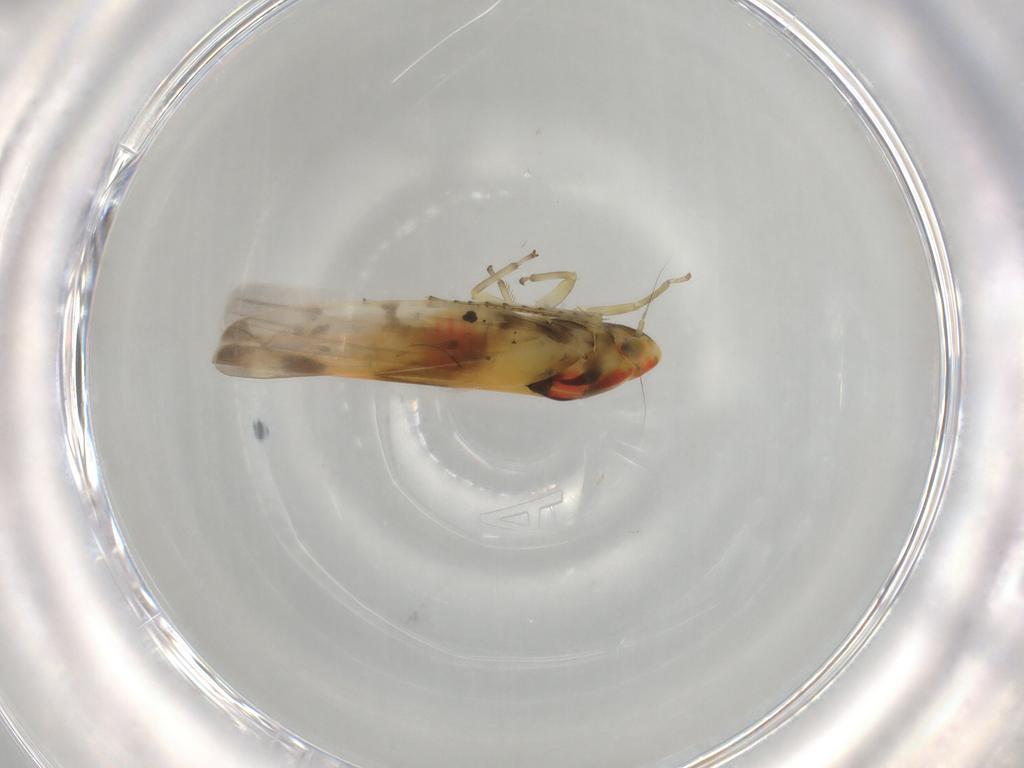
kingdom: Animalia
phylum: Arthropoda
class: Insecta
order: Hemiptera
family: Cicadellidae
